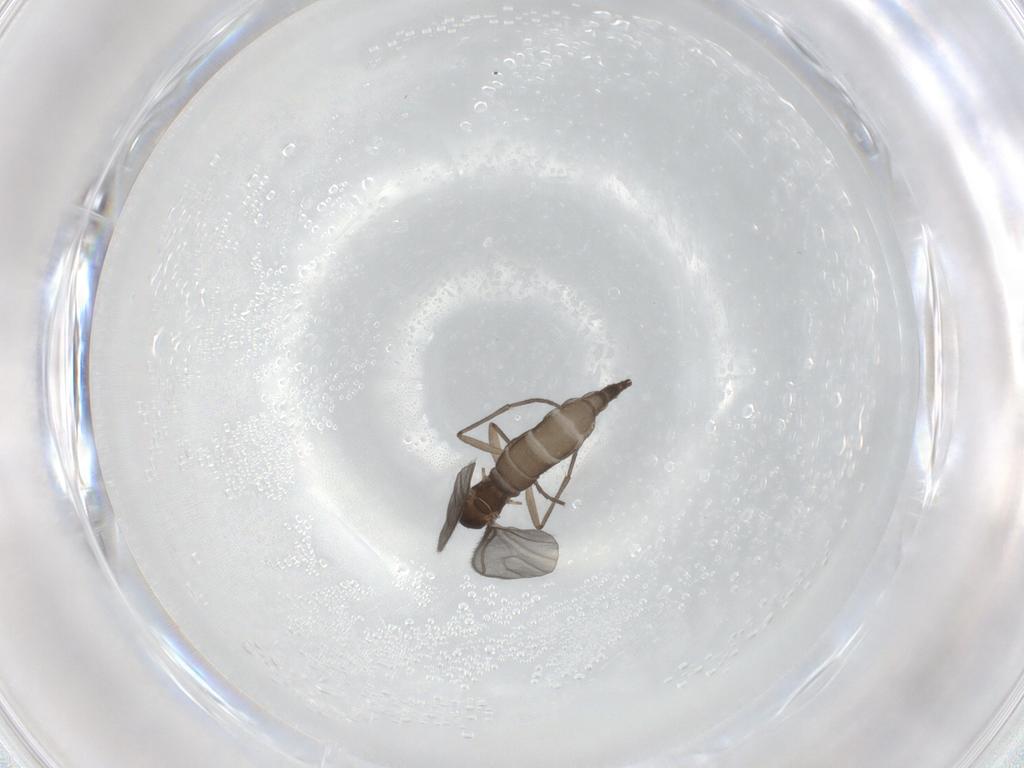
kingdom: Animalia
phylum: Arthropoda
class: Insecta
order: Diptera
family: Sciaridae
